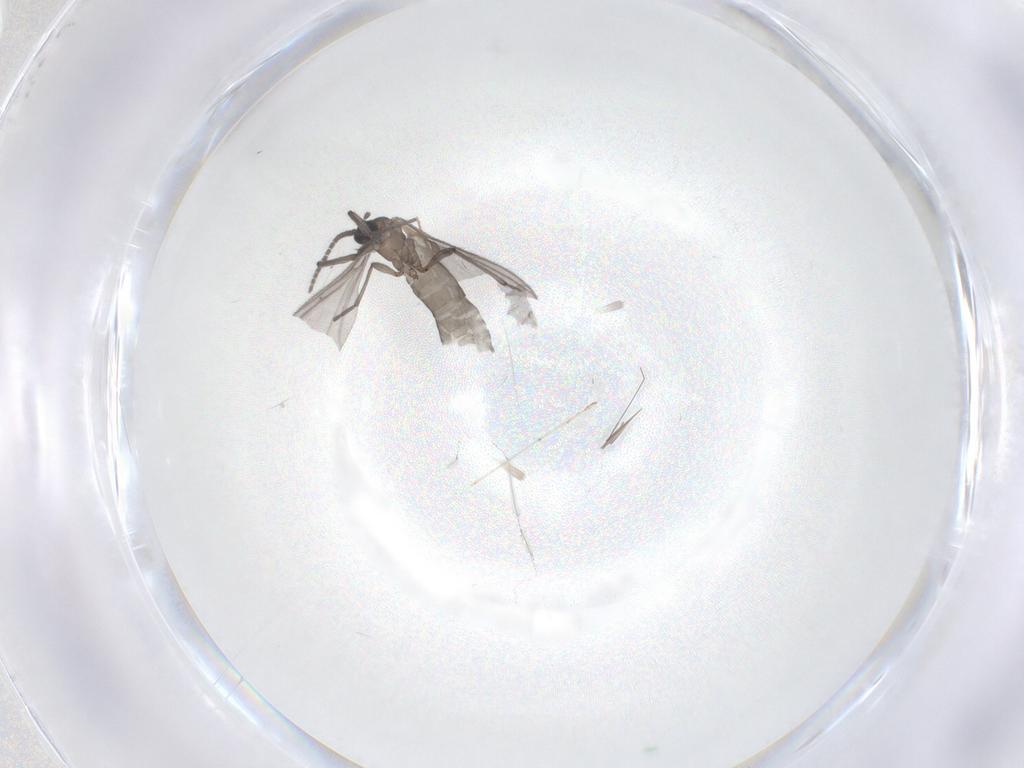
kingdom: Animalia
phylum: Arthropoda
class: Insecta
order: Diptera
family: Sciaridae
